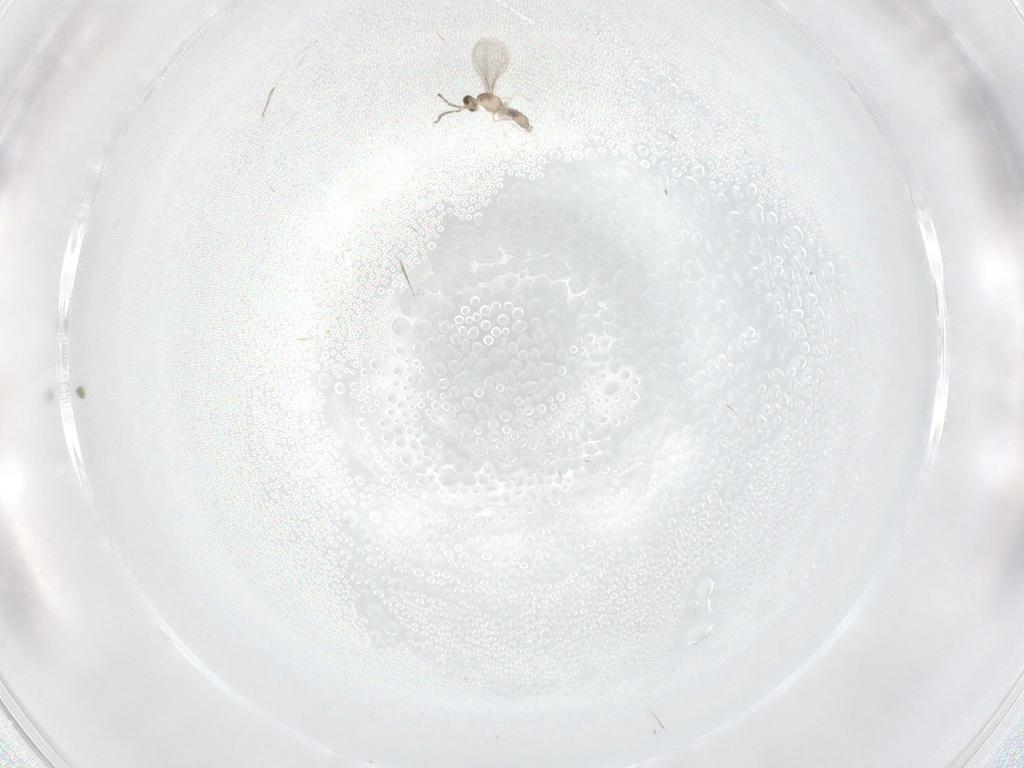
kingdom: Animalia
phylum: Arthropoda
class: Insecta
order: Diptera
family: Cecidomyiidae
